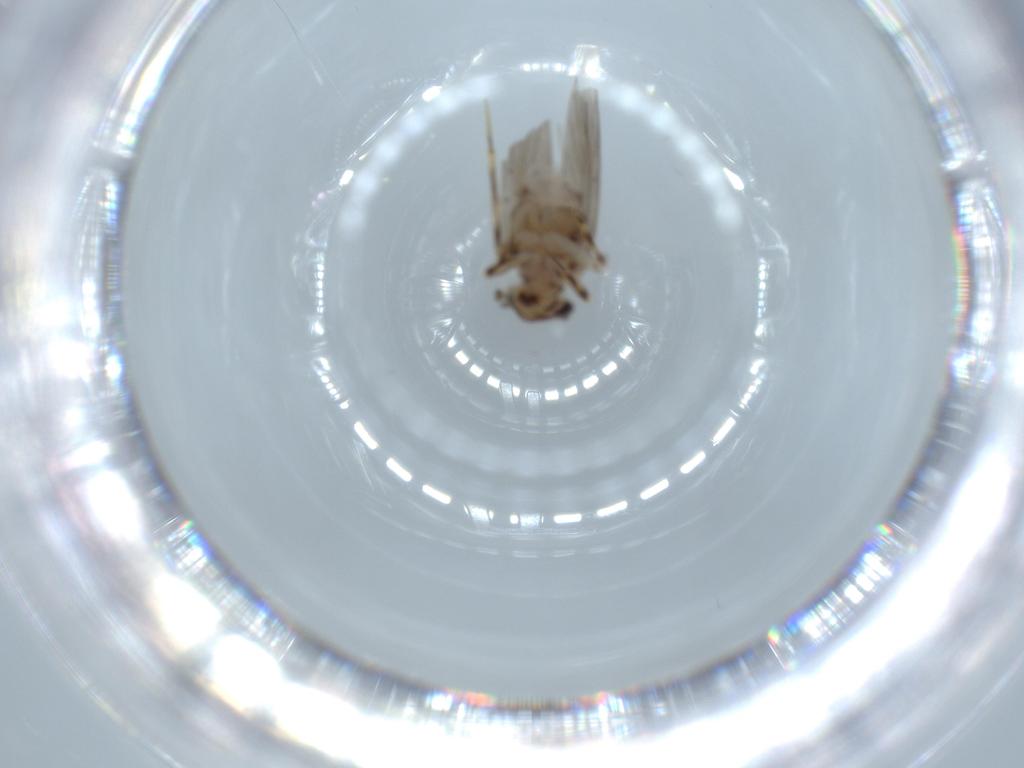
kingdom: Animalia
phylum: Arthropoda
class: Insecta
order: Psocodea
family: Lepidopsocidae
